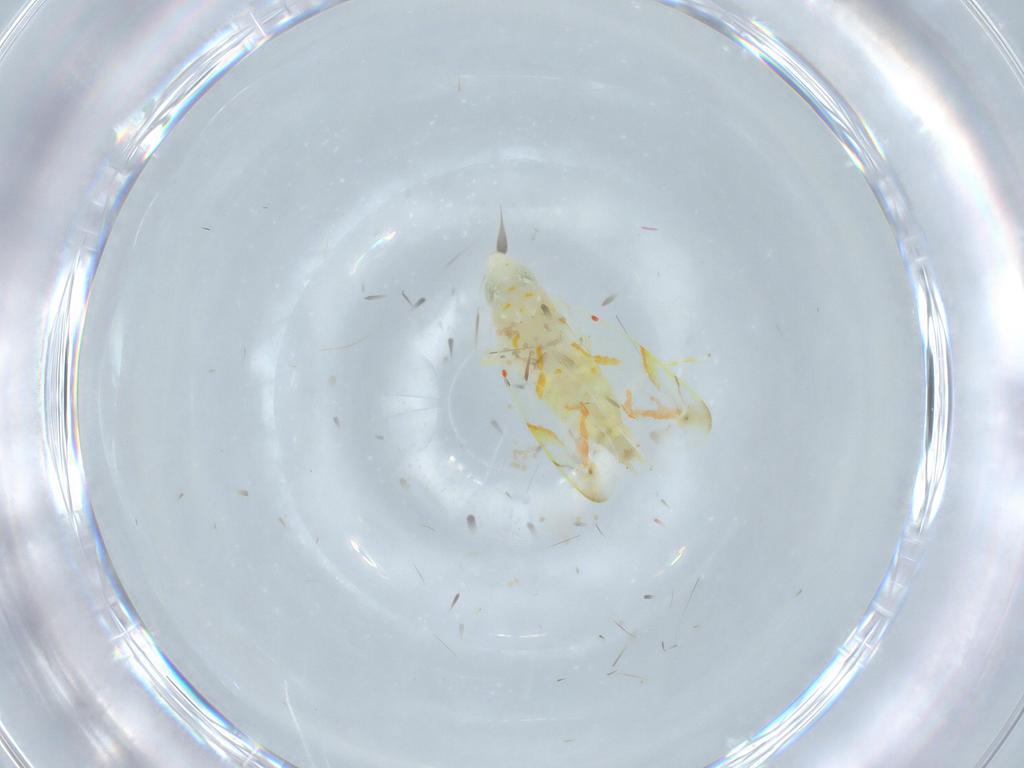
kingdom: Animalia
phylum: Arthropoda
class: Insecta
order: Hemiptera
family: Cicadellidae
